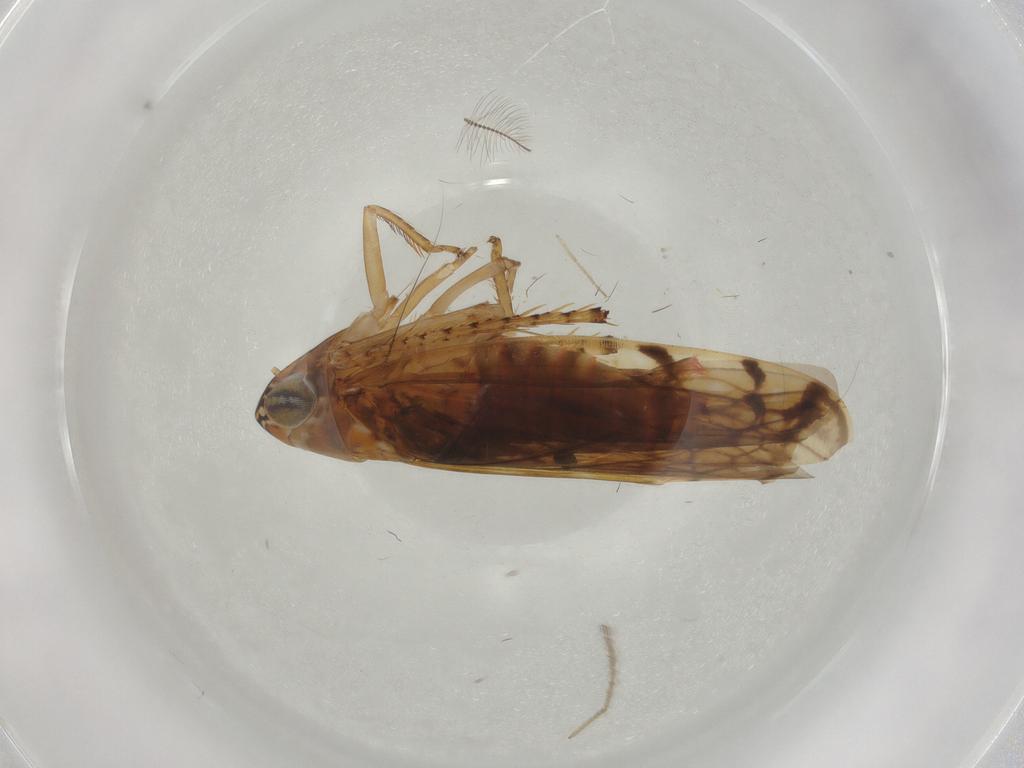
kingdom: Animalia
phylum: Arthropoda
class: Insecta
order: Hemiptera
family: Cicadellidae
